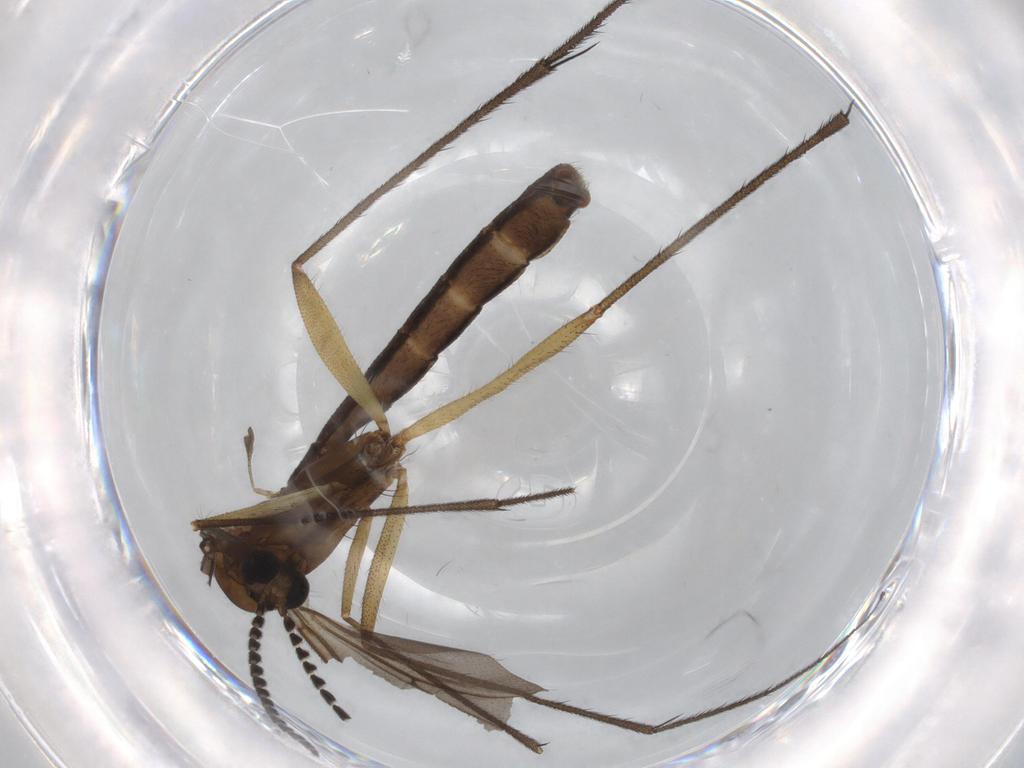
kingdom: Animalia
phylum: Arthropoda
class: Insecta
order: Diptera
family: Ditomyiidae
